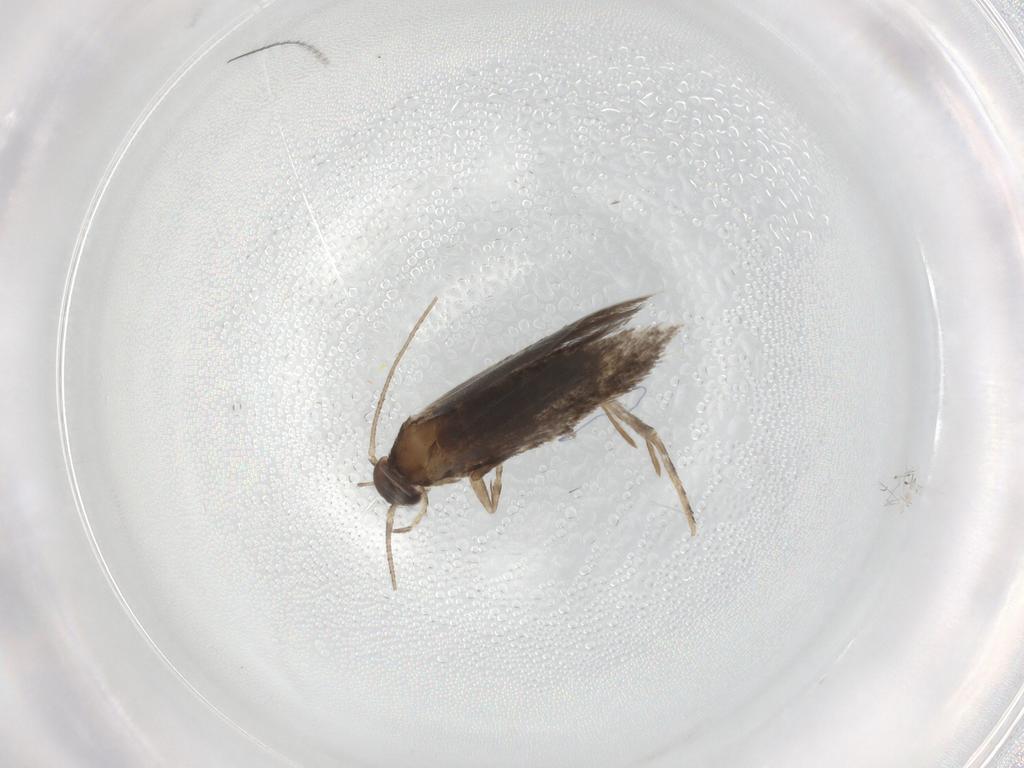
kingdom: Animalia
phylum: Arthropoda
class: Insecta
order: Lepidoptera
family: Elachistidae
